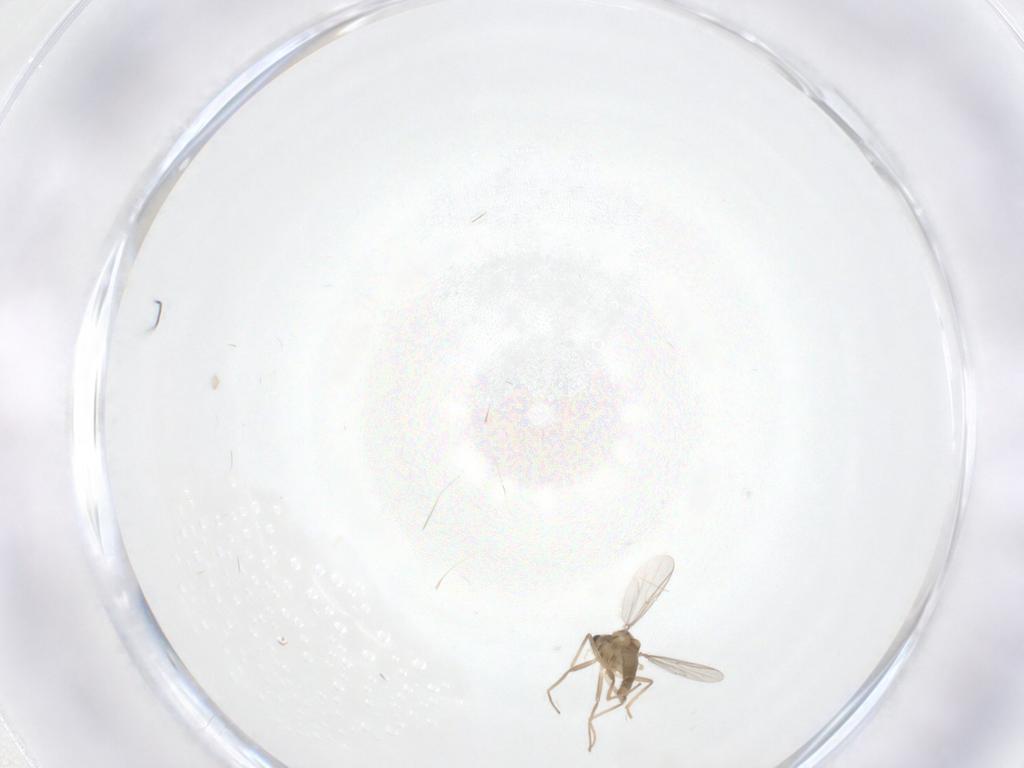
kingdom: Animalia
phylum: Arthropoda
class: Insecta
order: Diptera
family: Chironomidae
